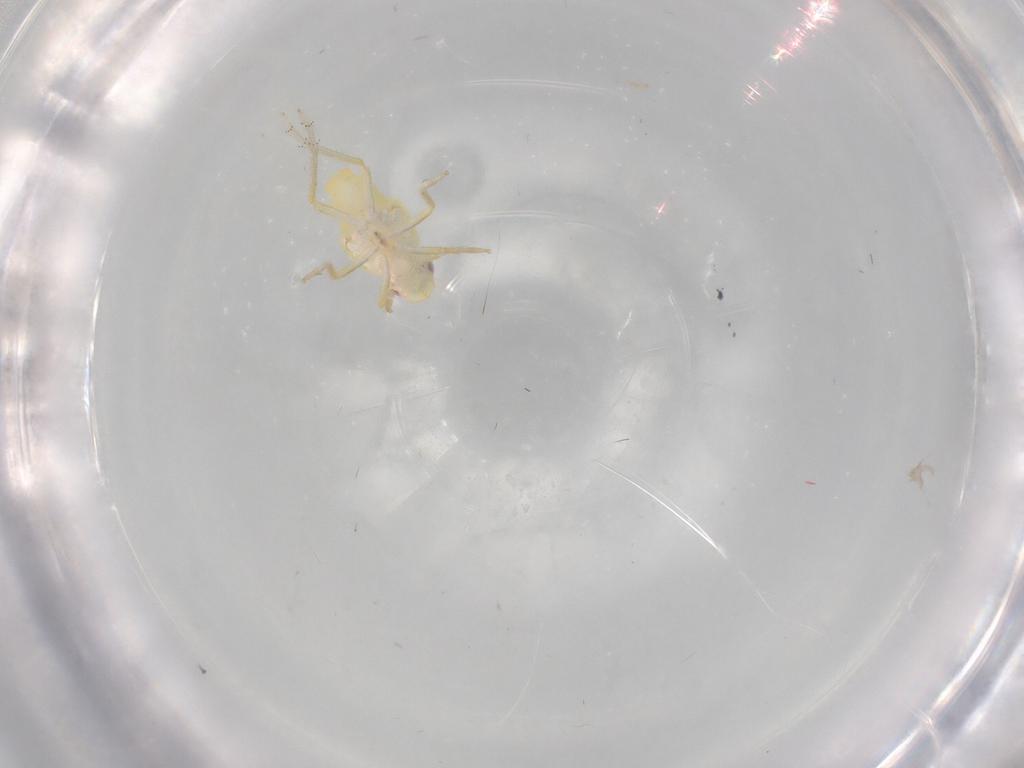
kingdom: Animalia
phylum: Arthropoda
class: Insecta
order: Hemiptera
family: Fulgoroidea_incertae_sedis
